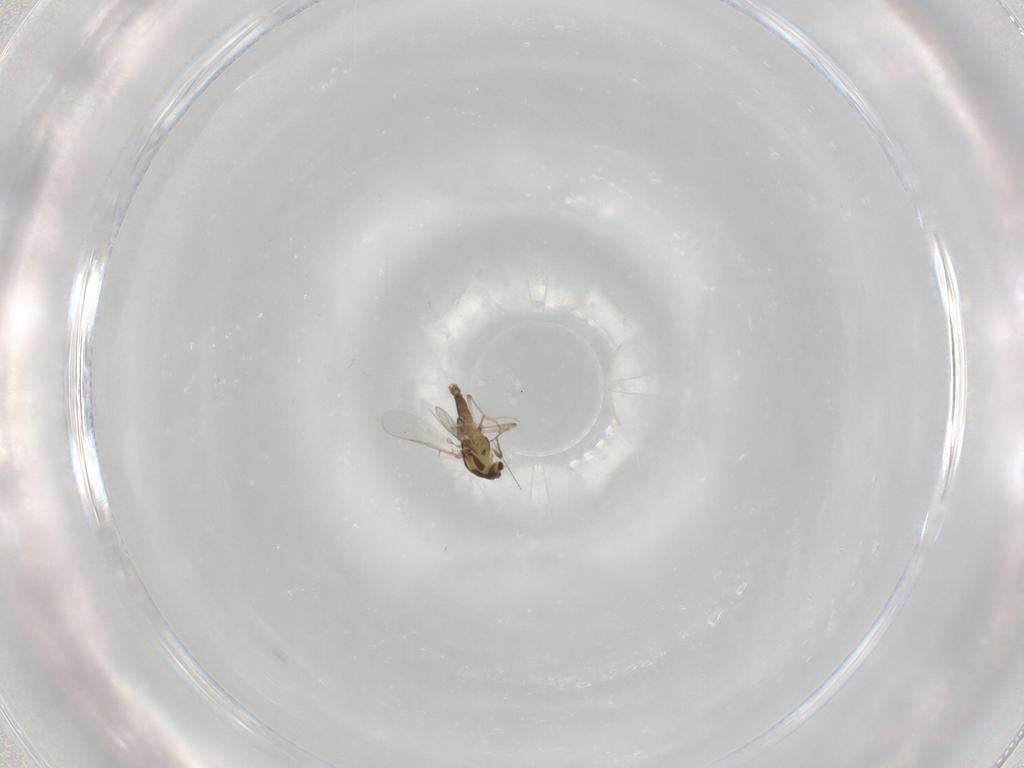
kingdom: Animalia
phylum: Arthropoda
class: Insecta
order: Diptera
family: Chironomidae
